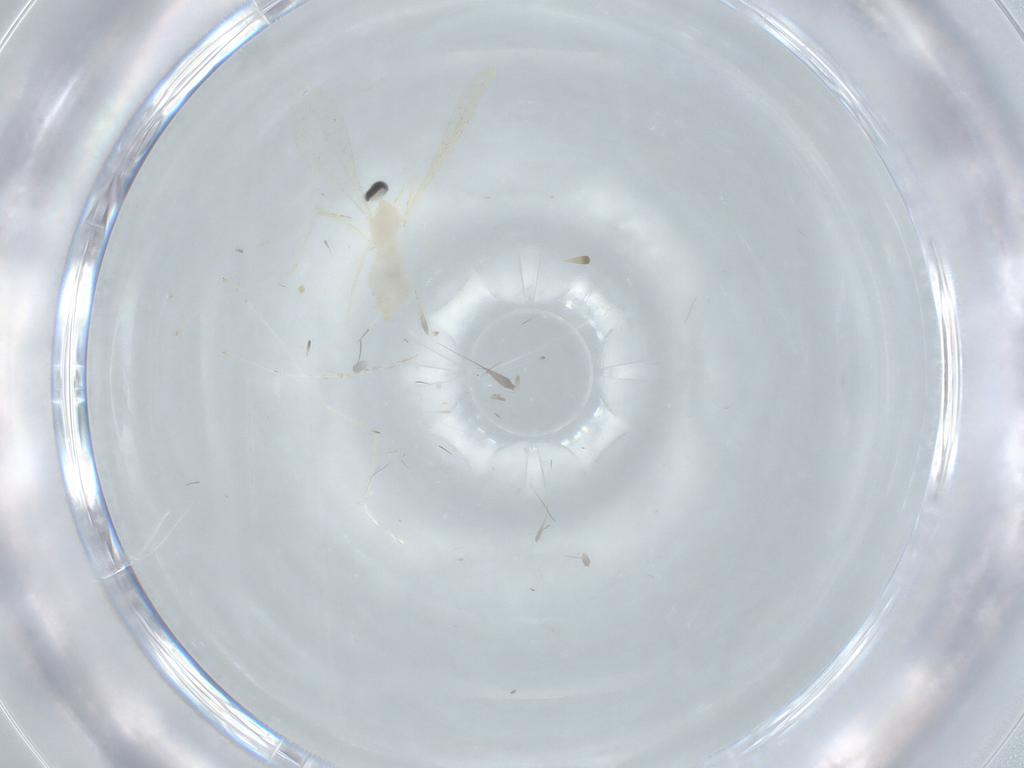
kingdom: Animalia
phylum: Arthropoda
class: Insecta
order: Diptera
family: Cecidomyiidae
